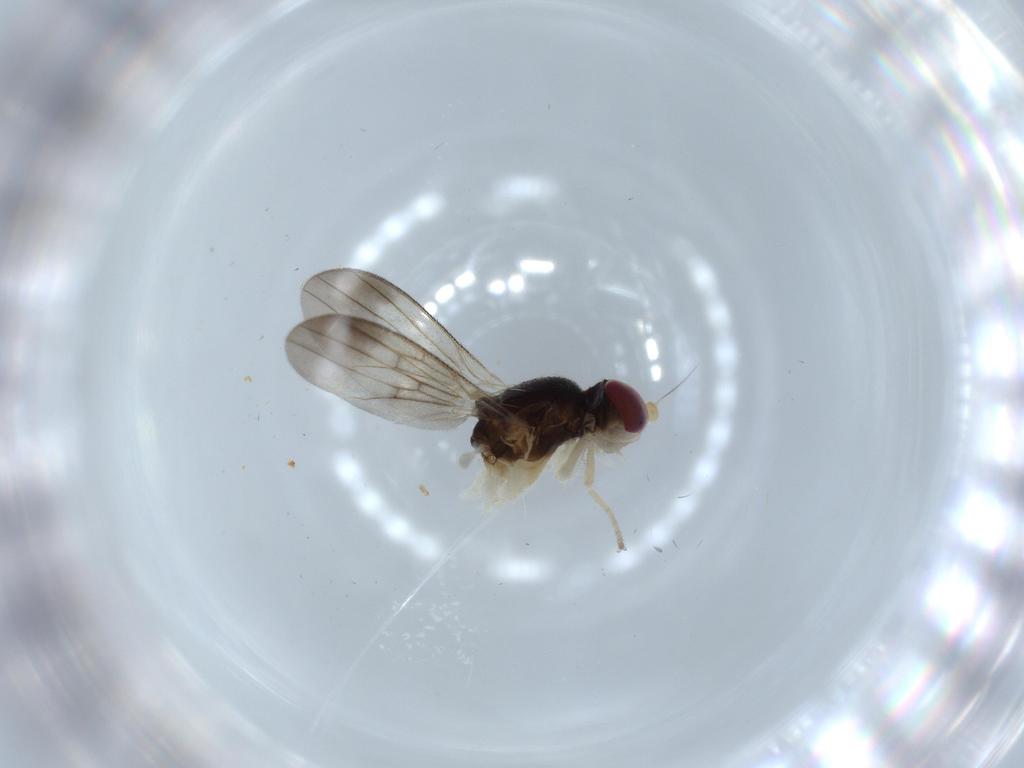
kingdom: Animalia
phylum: Arthropoda
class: Insecta
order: Diptera
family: Clusiidae
